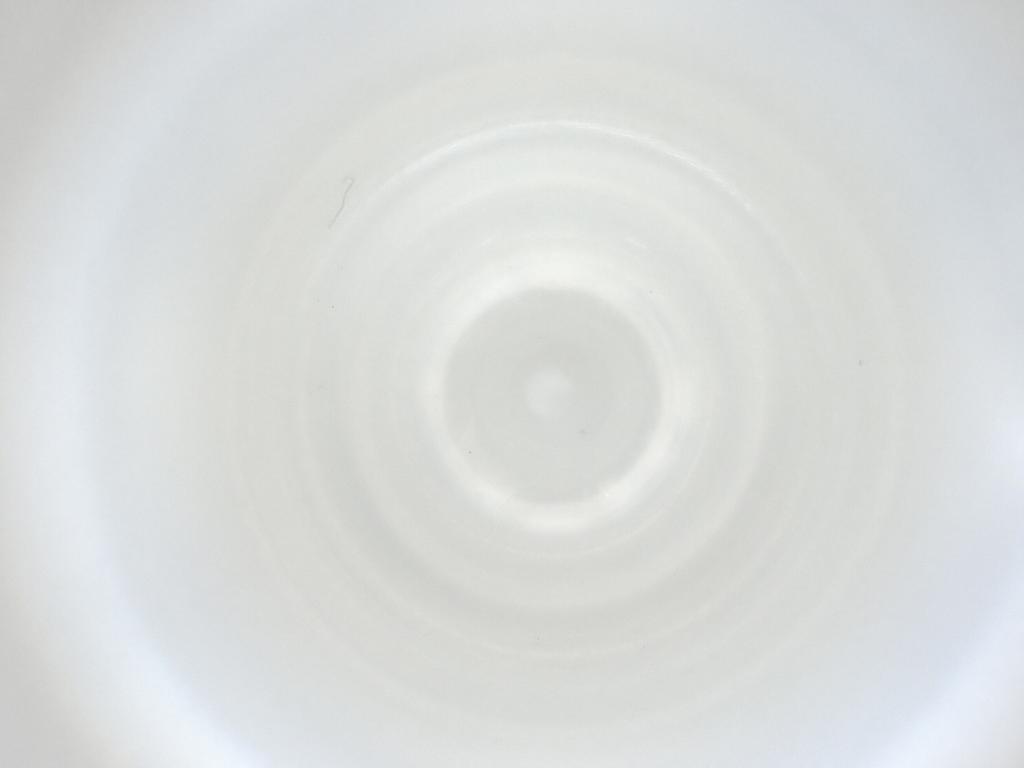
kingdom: Animalia
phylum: Arthropoda
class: Insecta
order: Diptera
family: Cecidomyiidae
